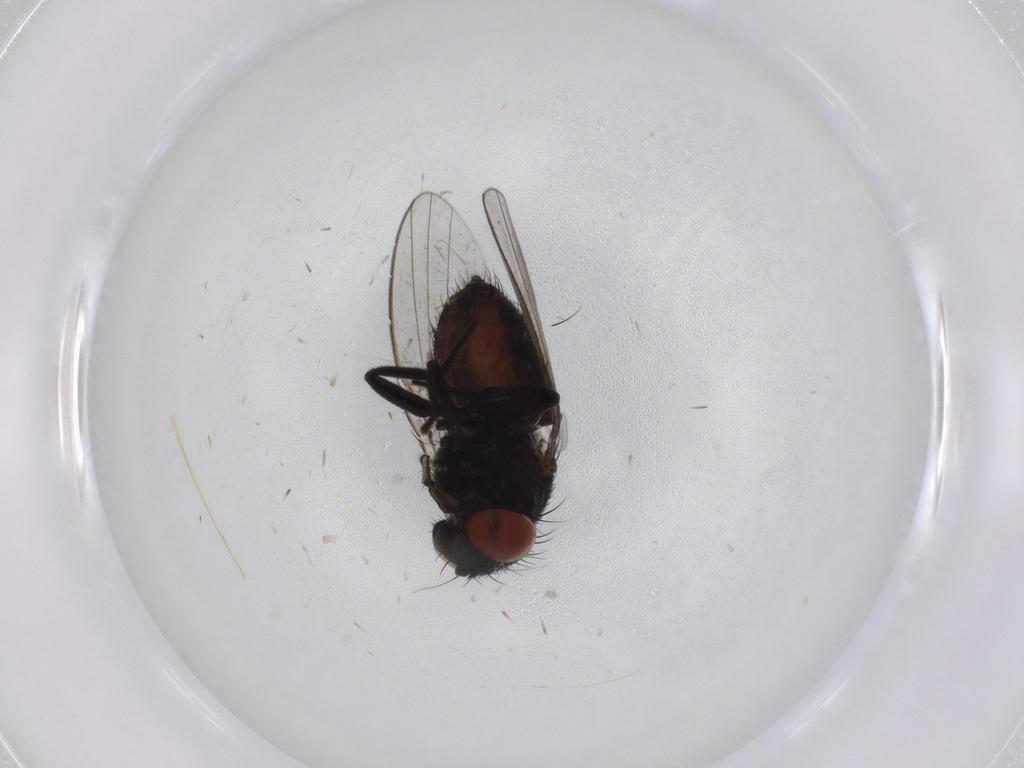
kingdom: Animalia
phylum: Arthropoda
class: Insecta
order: Diptera
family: Milichiidae
